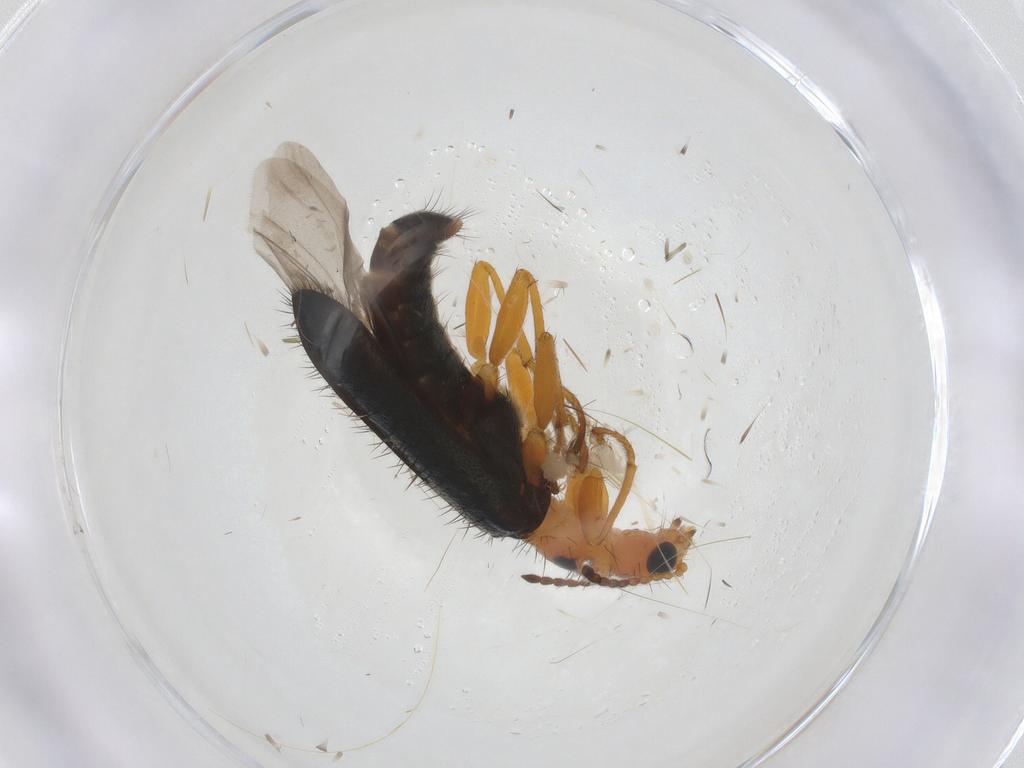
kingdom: Animalia
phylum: Arthropoda
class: Insecta
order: Coleoptera
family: Melyridae
